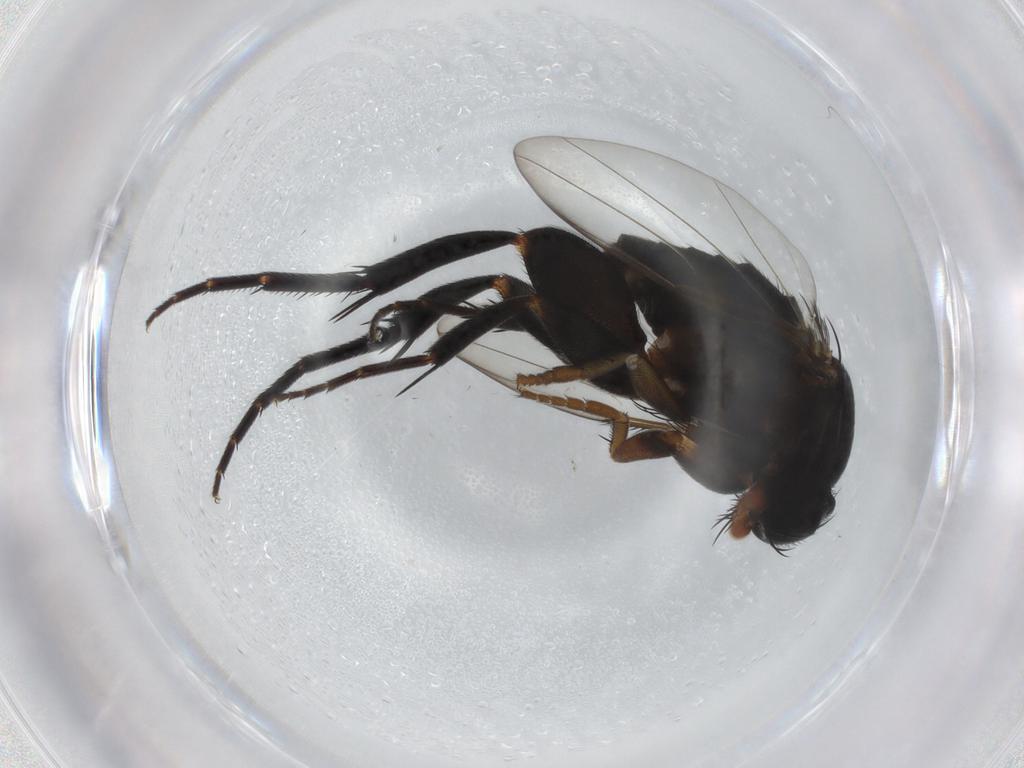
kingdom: Animalia
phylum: Arthropoda
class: Insecta
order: Diptera
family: Phoridae
